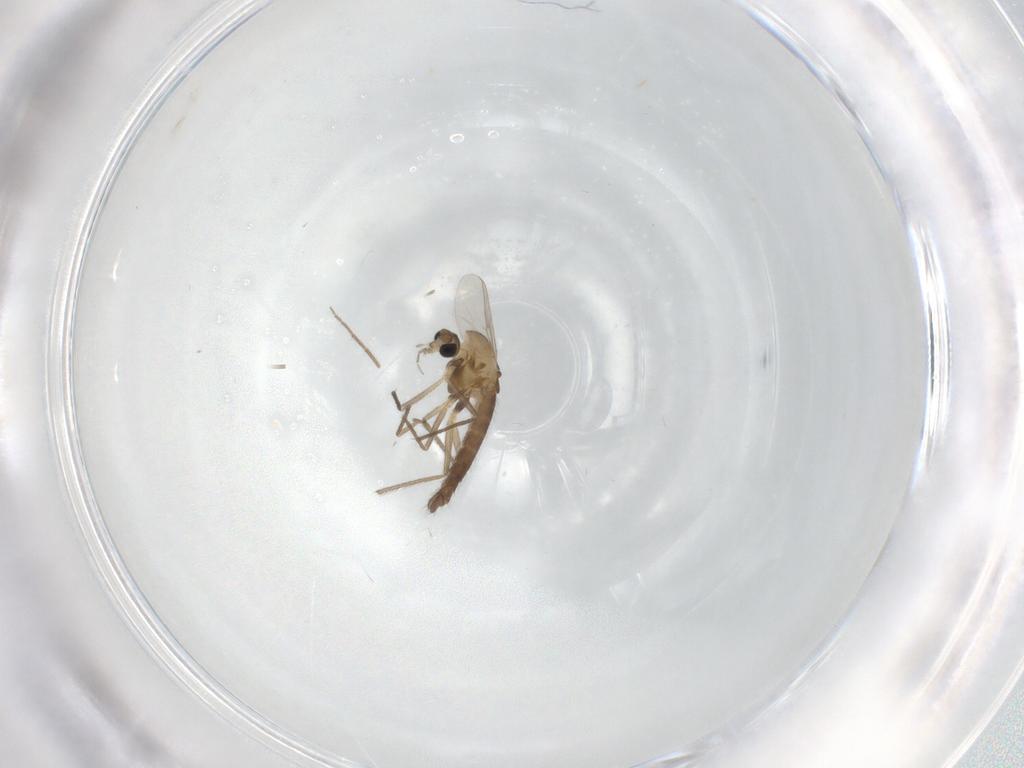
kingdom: Animalia
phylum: Arthropoda
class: Insecta
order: Diptera
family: Chironomidae
